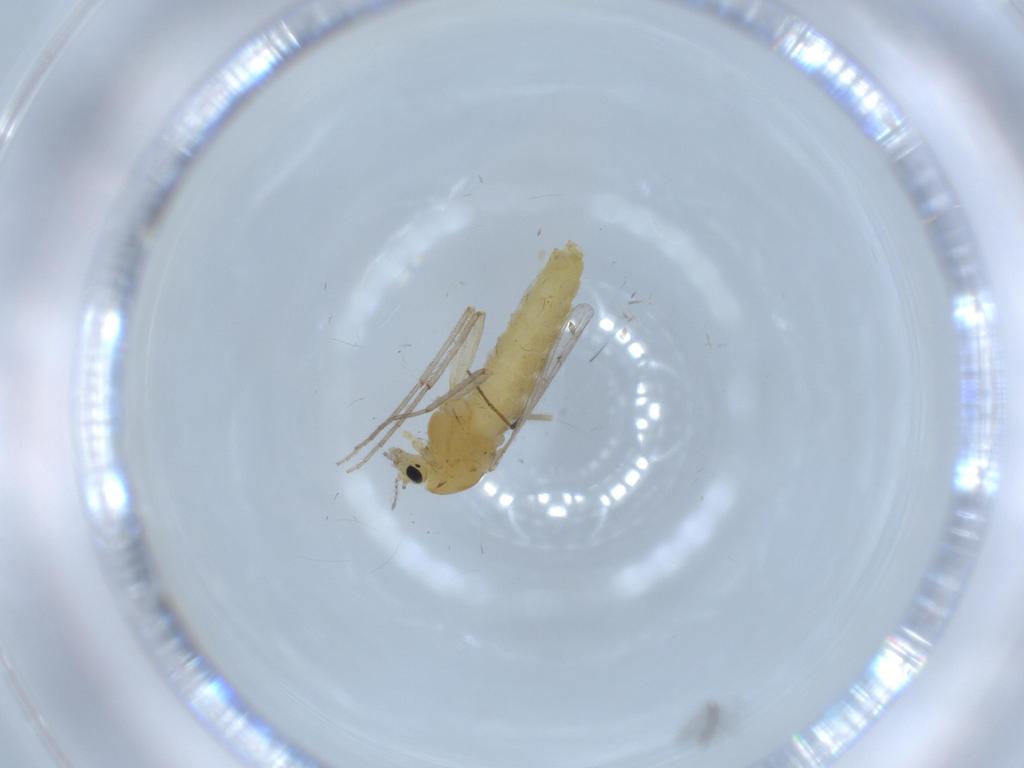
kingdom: Animalia
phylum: Arthropoda
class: Insecta
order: Diptera
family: Chironomidae
